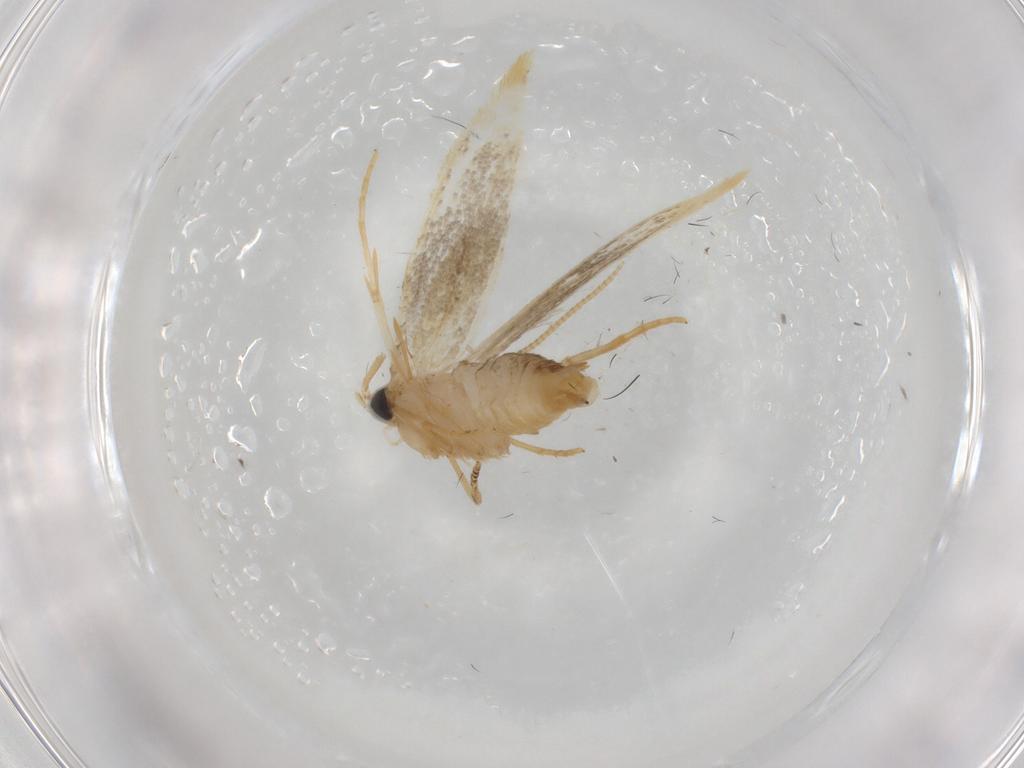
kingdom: Animalia
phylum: Arthropoda
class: Insecta
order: Lepidoptera
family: Tineidae
